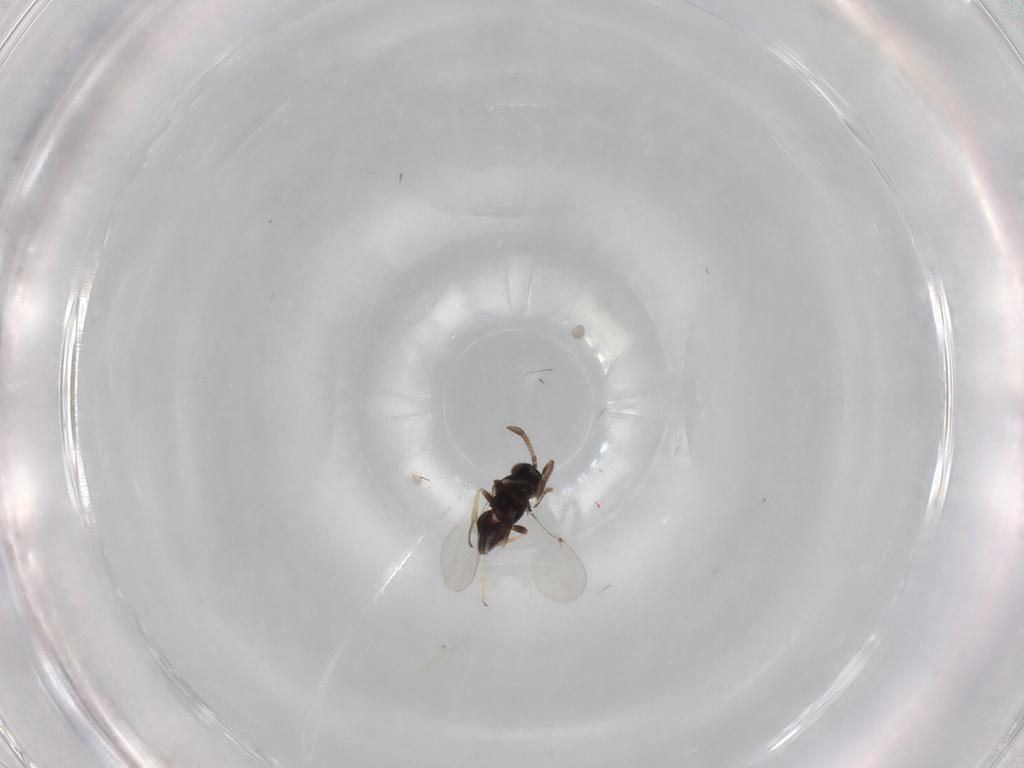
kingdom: Animalia
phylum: Arthropoda
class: Insecta
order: Hymenoptera
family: Encyrtidae
